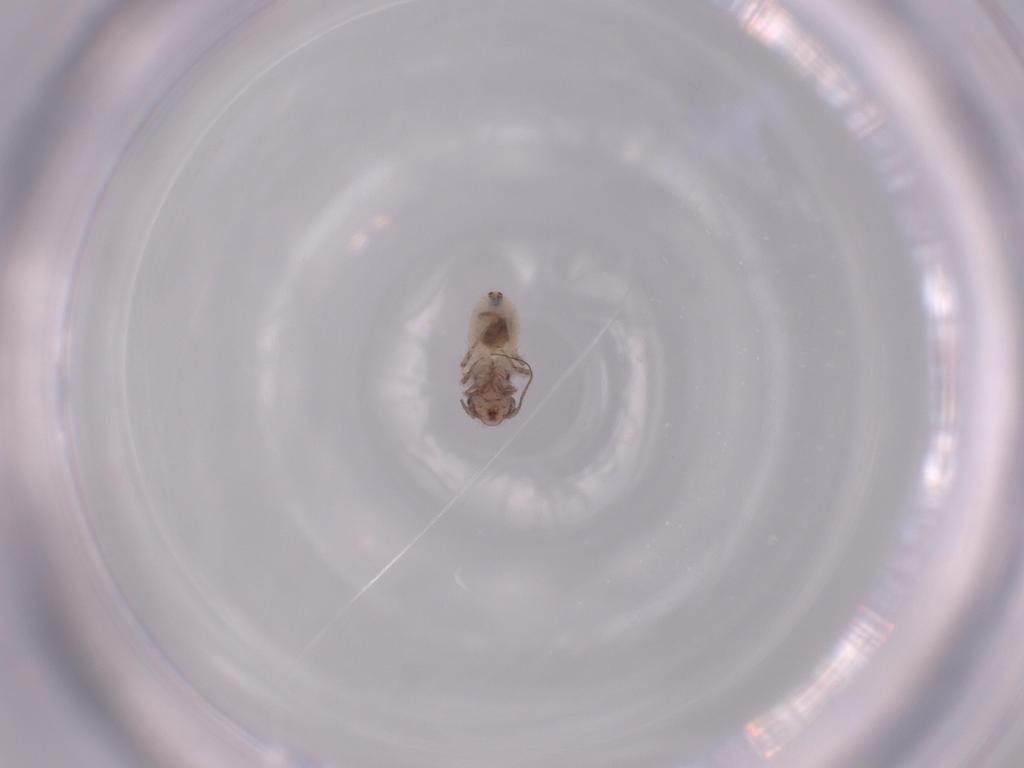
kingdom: Animalia
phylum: Arthropoda
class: Insecta
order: Psocodea
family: Lepidopsocidae
